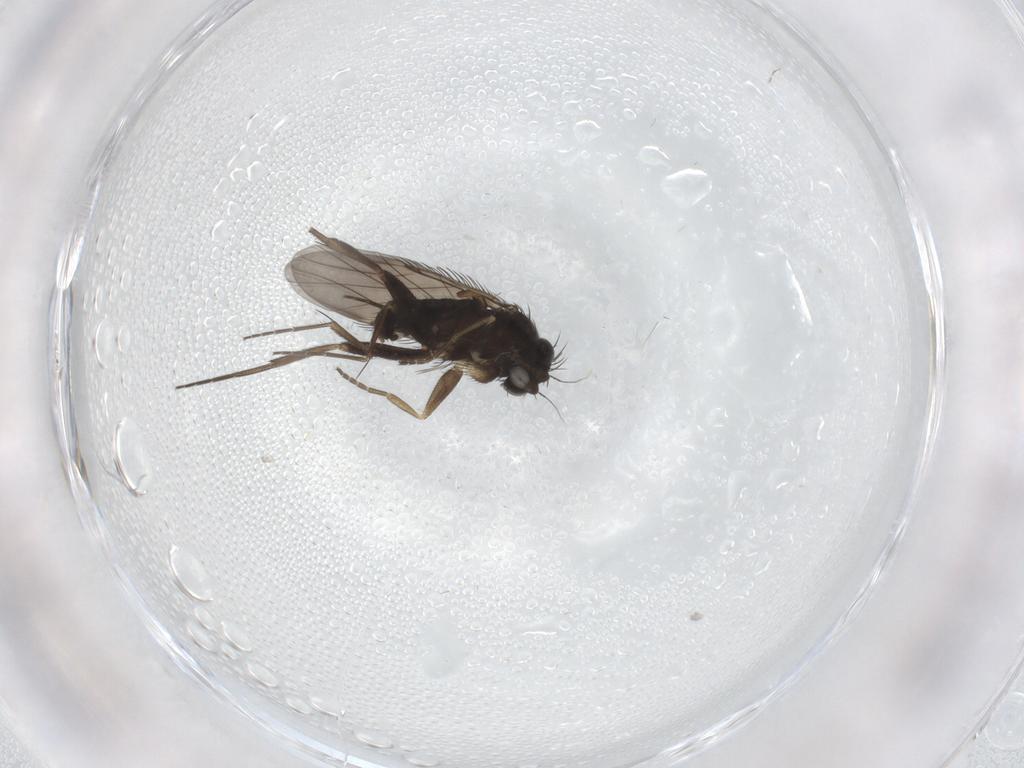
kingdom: Animalia
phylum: Arthropoda
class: Insecta
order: Diptera
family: Phoridae
